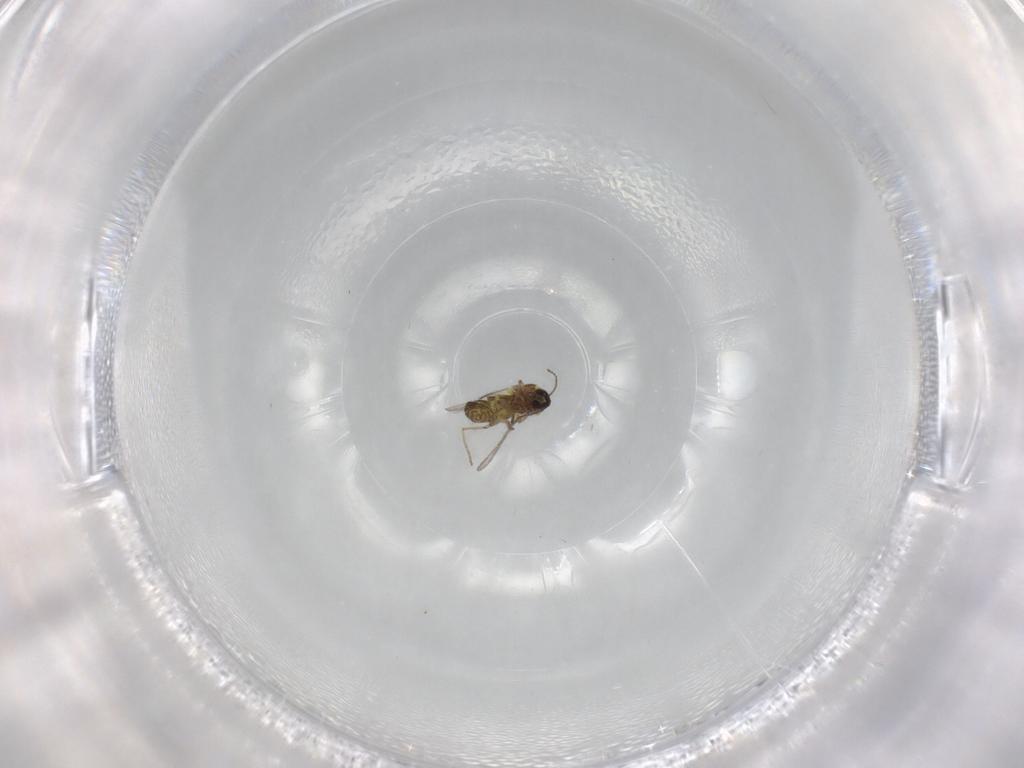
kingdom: Animalia
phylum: Arthropoda
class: Insecta
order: Diptera
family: Ceratopogonidae
